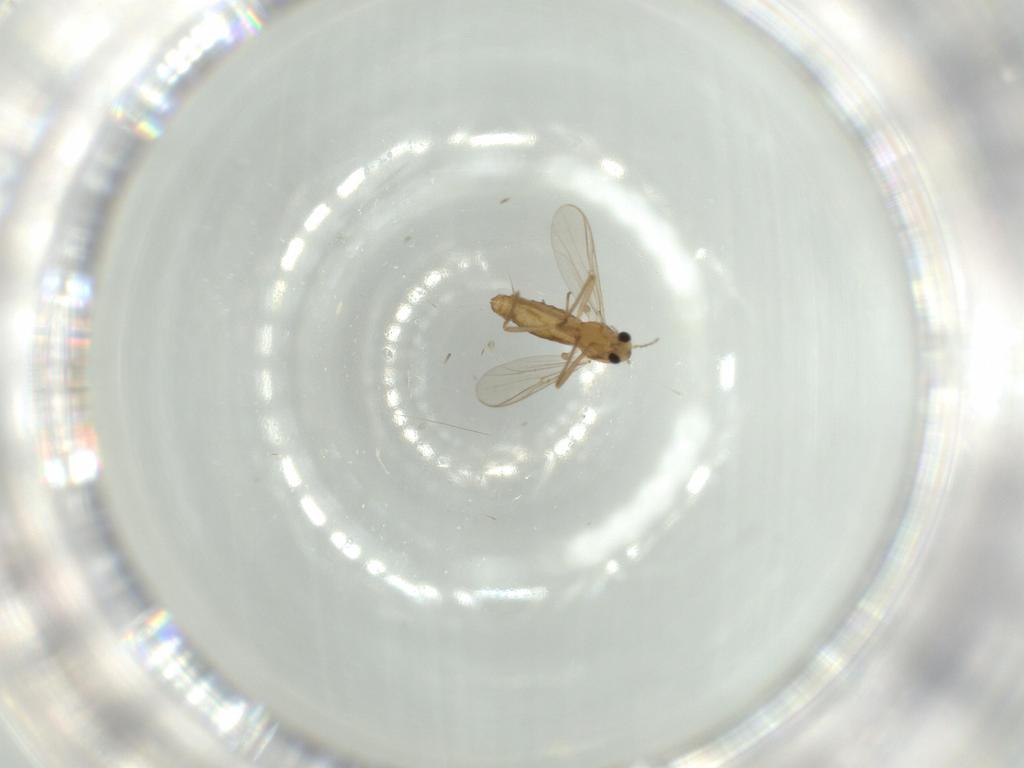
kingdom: Animalia
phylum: Arthropoda
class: Insecta
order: Diptera
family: Chironomidae
